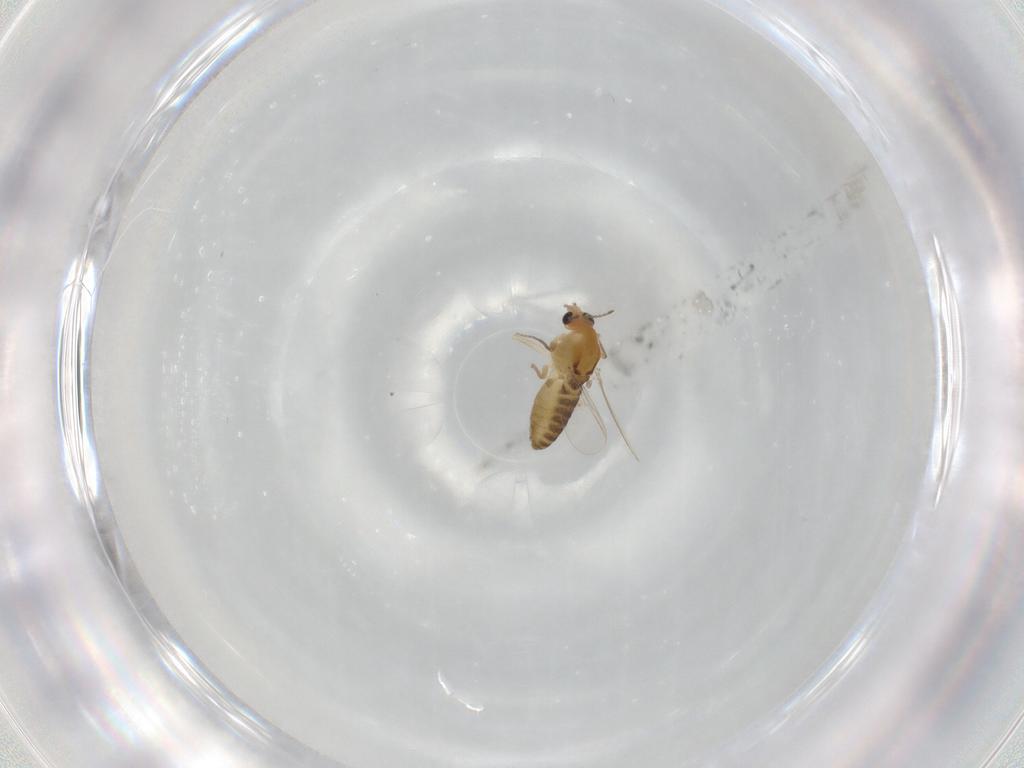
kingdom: Animalia
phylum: Arthropoda
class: Insecta
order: Diptera
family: Chironomidae
